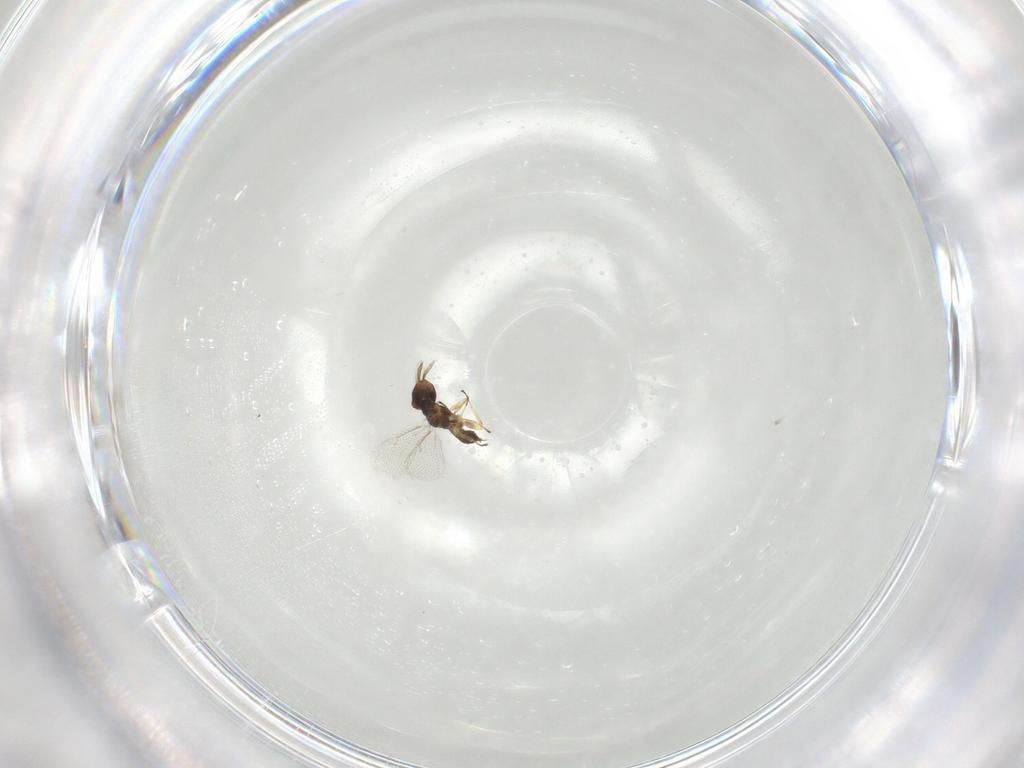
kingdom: Animalia
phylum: Arthropoda
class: Insecta
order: Hymenoptera
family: Eulophidae
